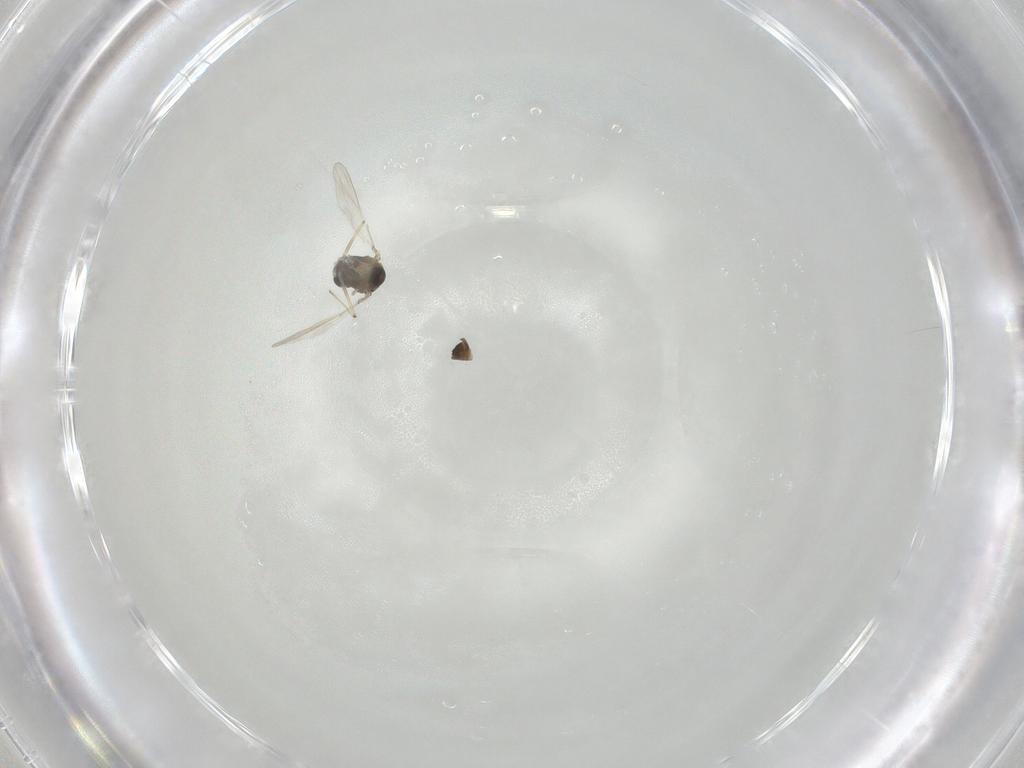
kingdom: Animalia
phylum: Arthropoda
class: Insecta
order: Diptera
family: Chironomidae
